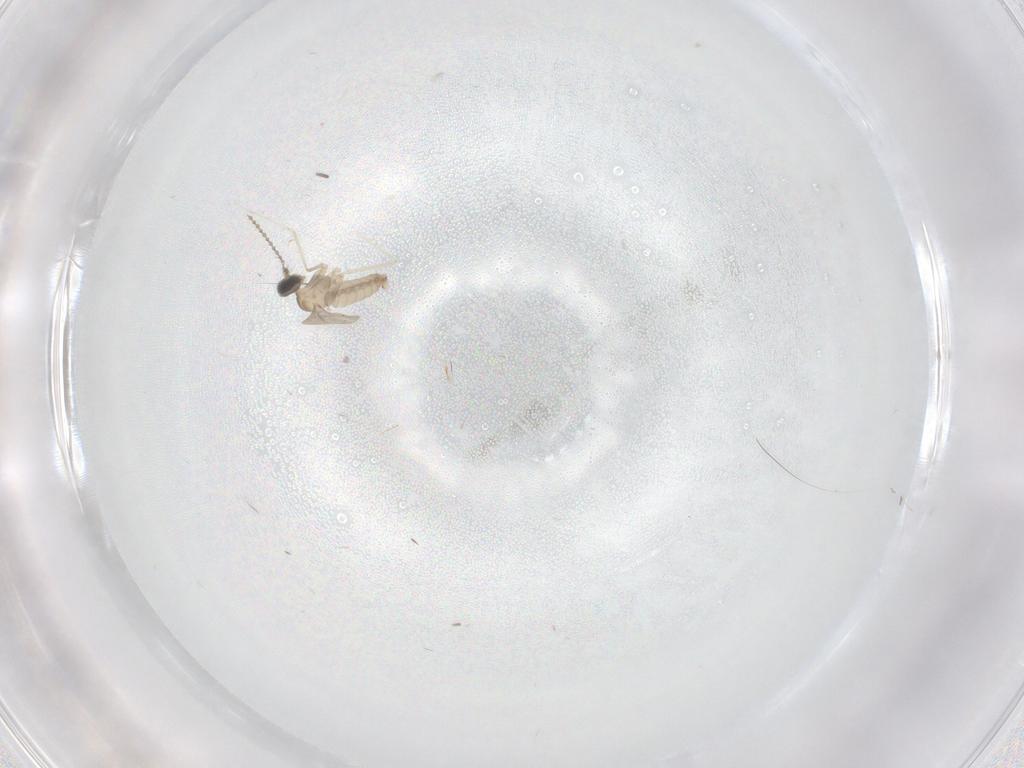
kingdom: Animalia
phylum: Arthropoda
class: Insecta
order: Diptera
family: Cecidomyiidae
